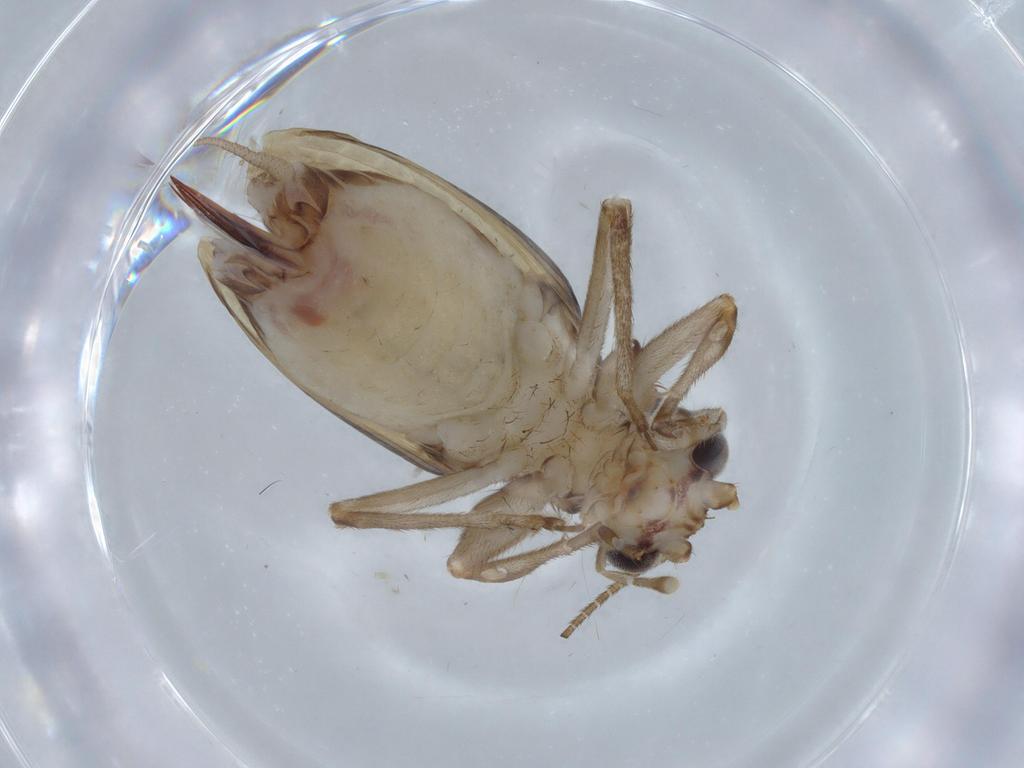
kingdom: Animalia
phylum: Arthropoda
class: Insecta
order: Orthoptera
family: Trigonidiidae
